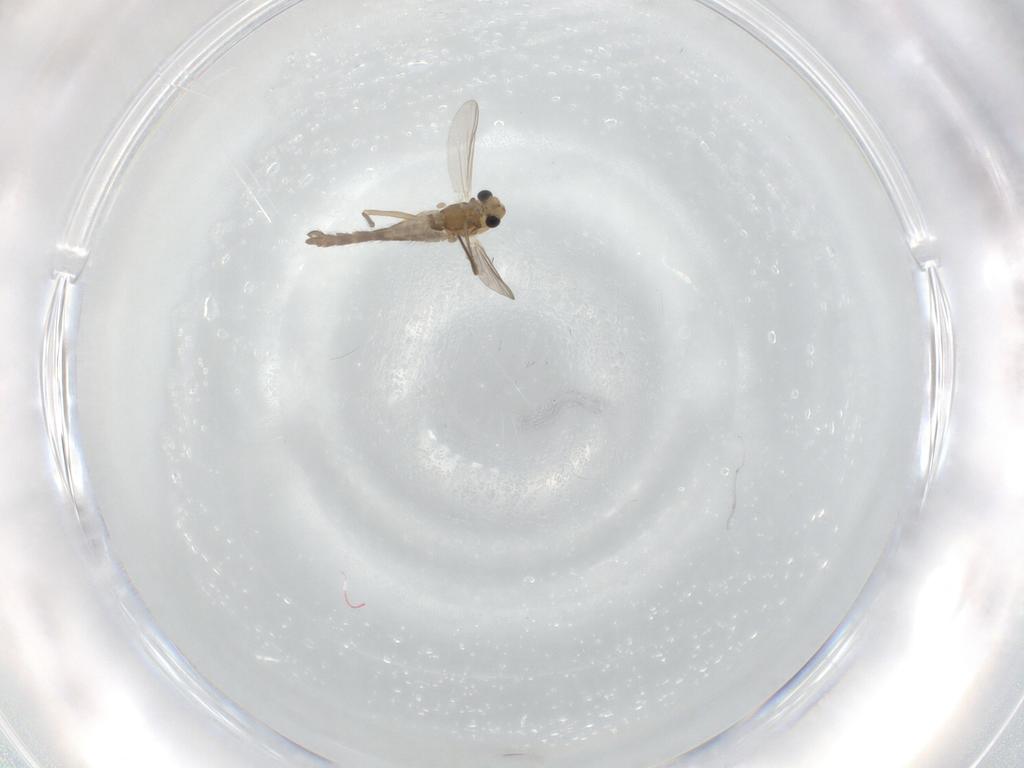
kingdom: Animalia
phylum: Arthropoda
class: Insecta
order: Diptera
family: Chironomidae
